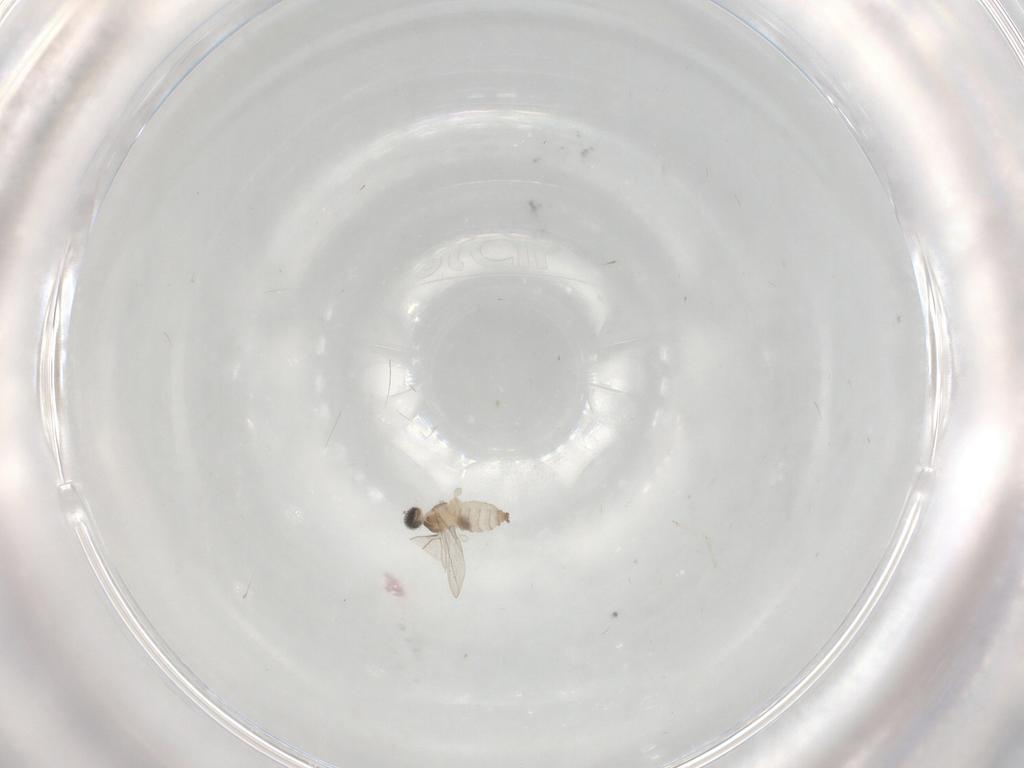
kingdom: Animalia
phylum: Arthropoda
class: Insecta
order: Diptera
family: Cecidomyiidae
